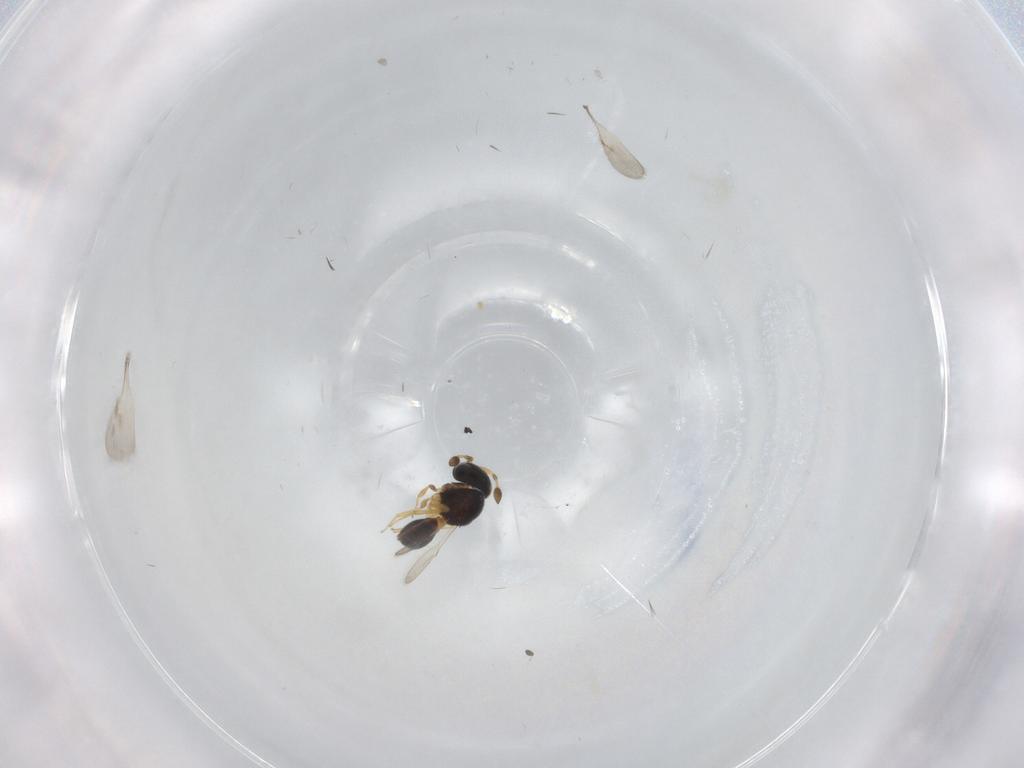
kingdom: Animalia
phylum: Arthropoda
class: Insecta
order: Hymenoptera
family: Scelionidae
